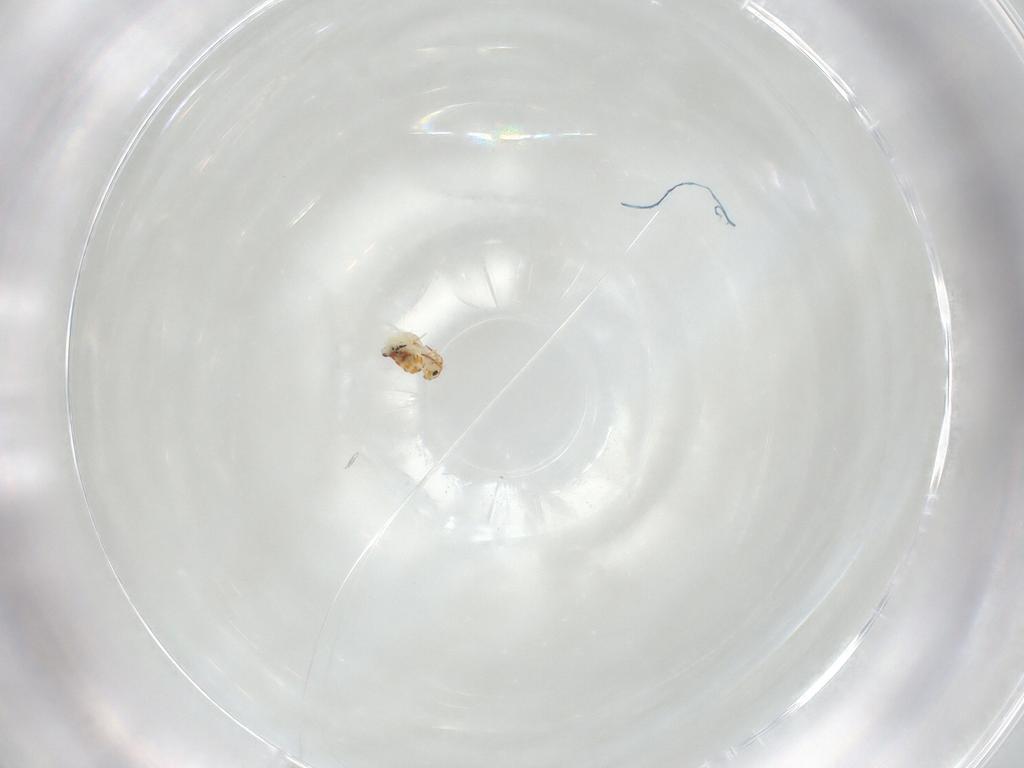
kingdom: Animalia
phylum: Arthropoda
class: Collembola
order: Symphypleona
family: Bourletiellidae
